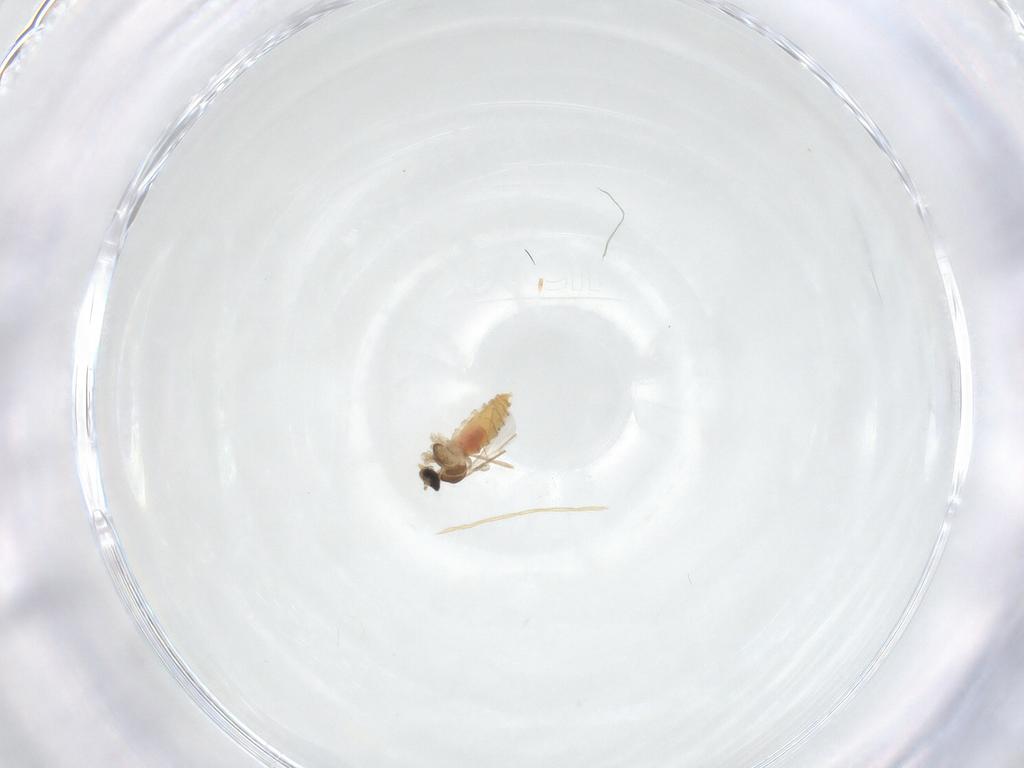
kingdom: Animalia
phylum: Arthropoda
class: Insecta
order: Diptera
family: Cecidomyiidae
